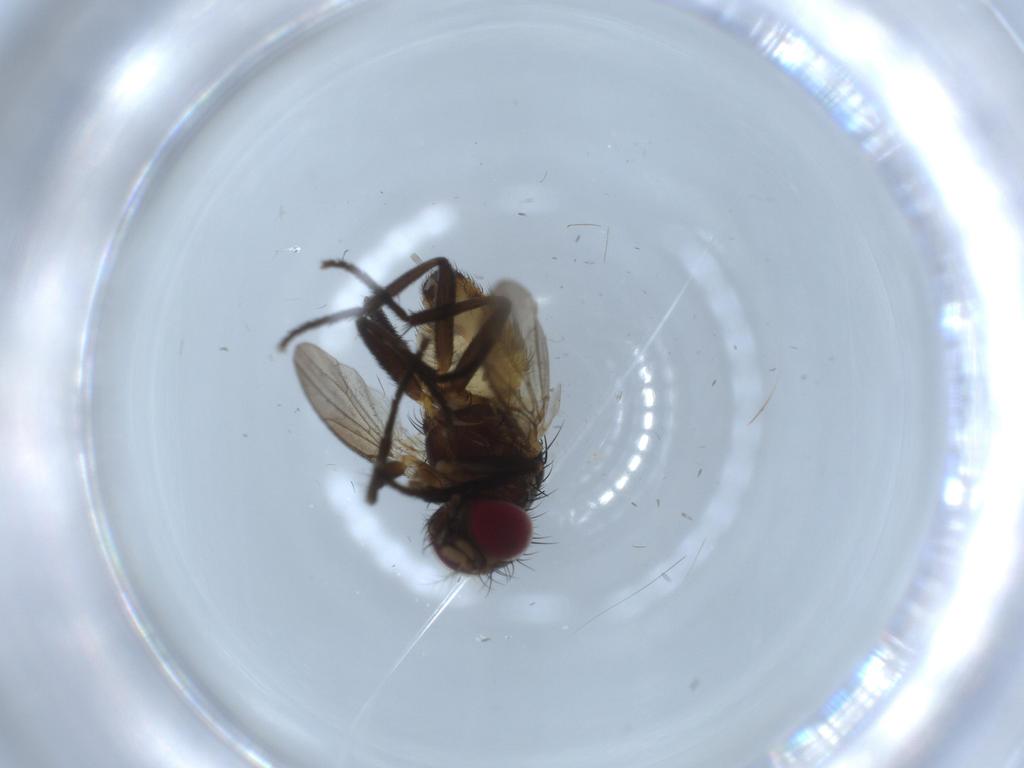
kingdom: Animalia
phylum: Arthropoda
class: Insecta
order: Diptera
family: Anthomyiidae
